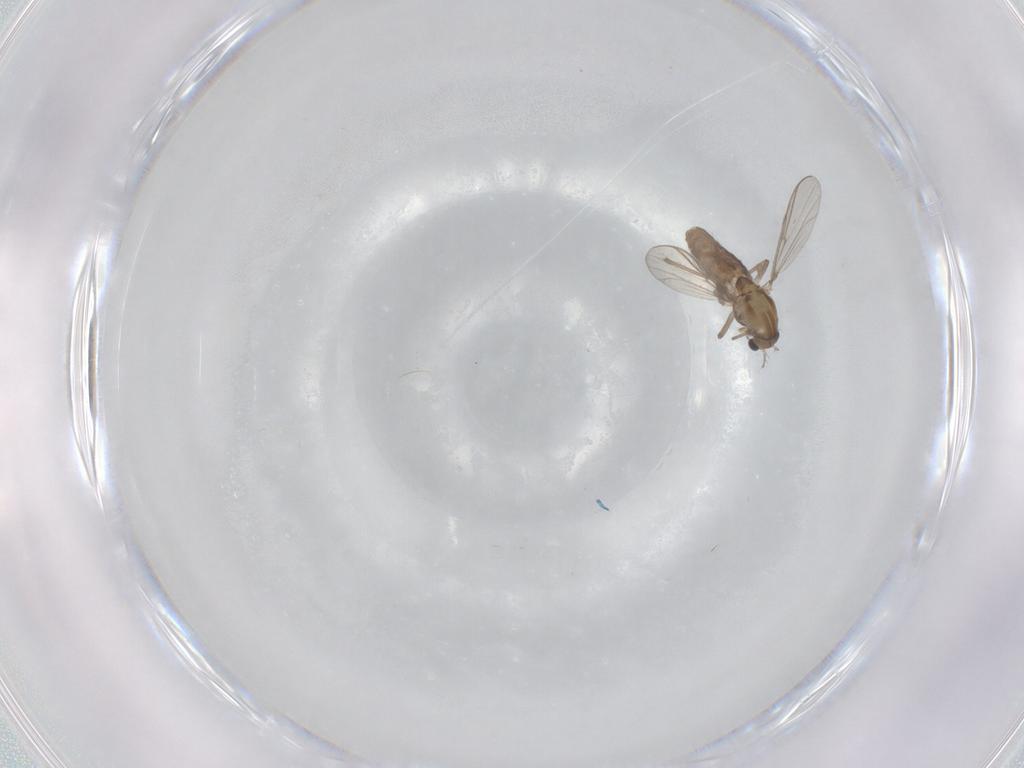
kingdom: Animalia
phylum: Arthropoda
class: Insecta
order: Diptera
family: Chironomidae
